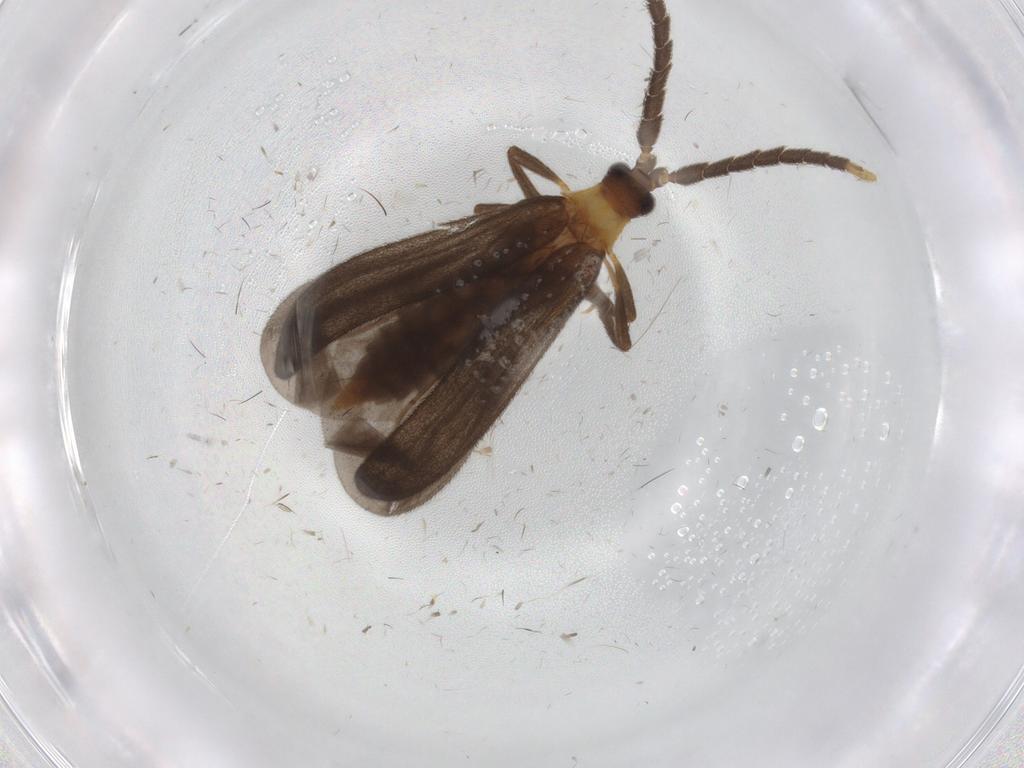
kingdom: Animalia
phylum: Arthropoda
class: Insecta
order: Coleoptera
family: Lycidae
